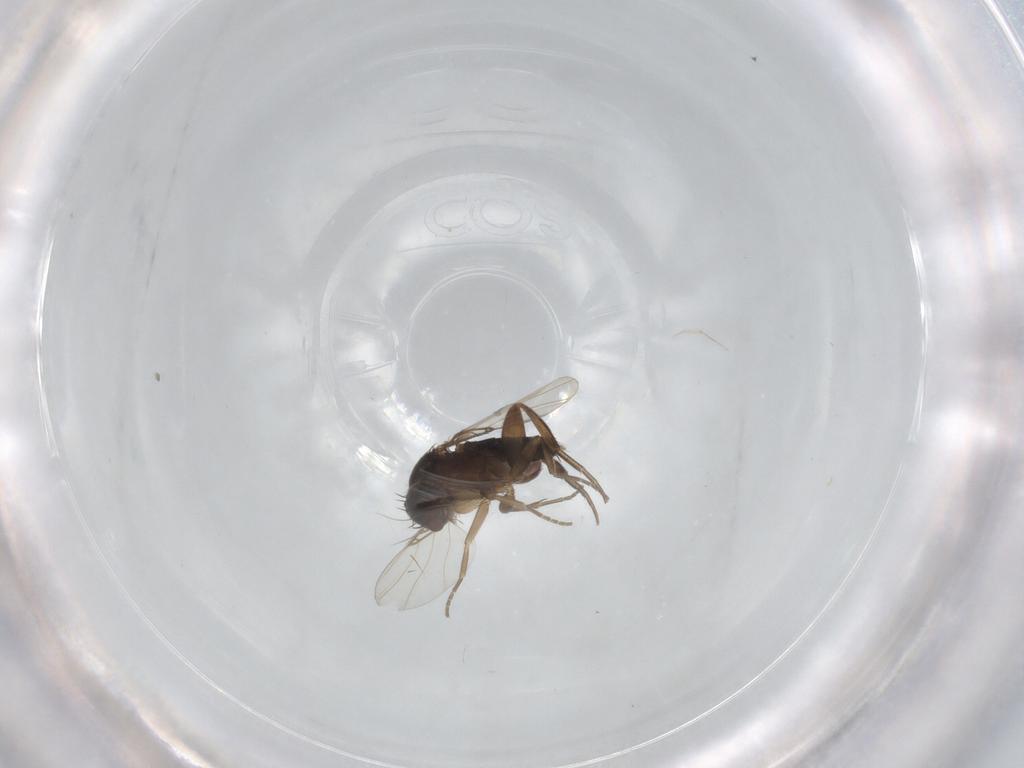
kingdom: Animalia
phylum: Arthropoda
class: Insecta
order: Diptera
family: Phoridae
